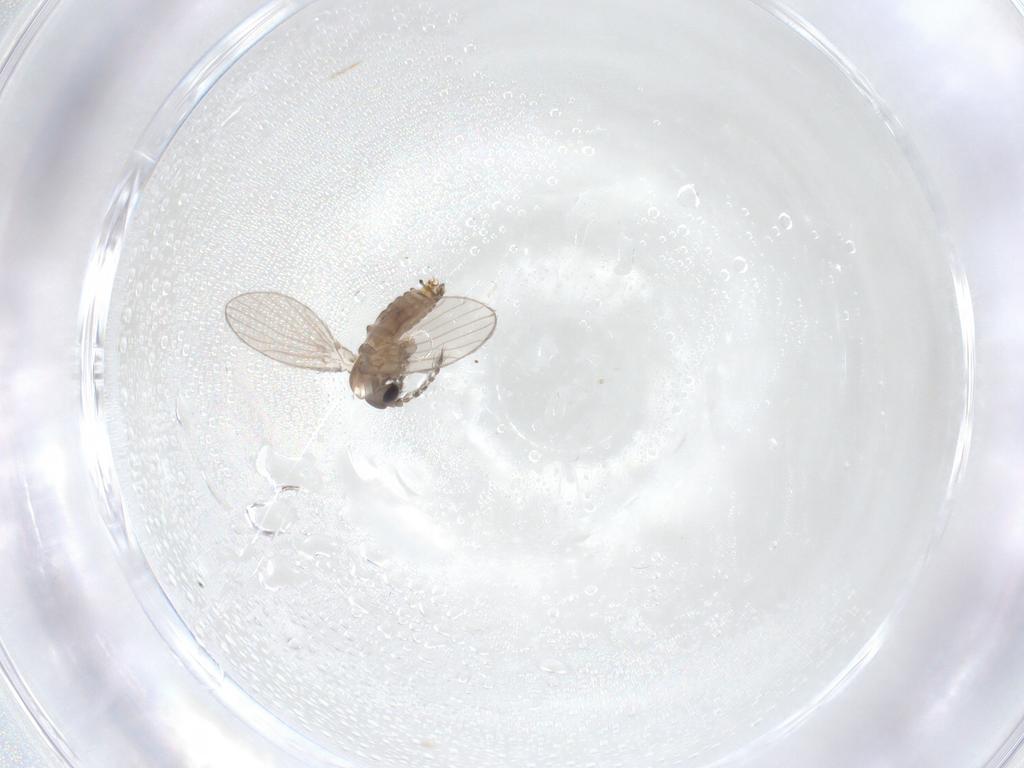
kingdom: Animalia
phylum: Arthropoda
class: Insecta
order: Diptera
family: Psychodidae
